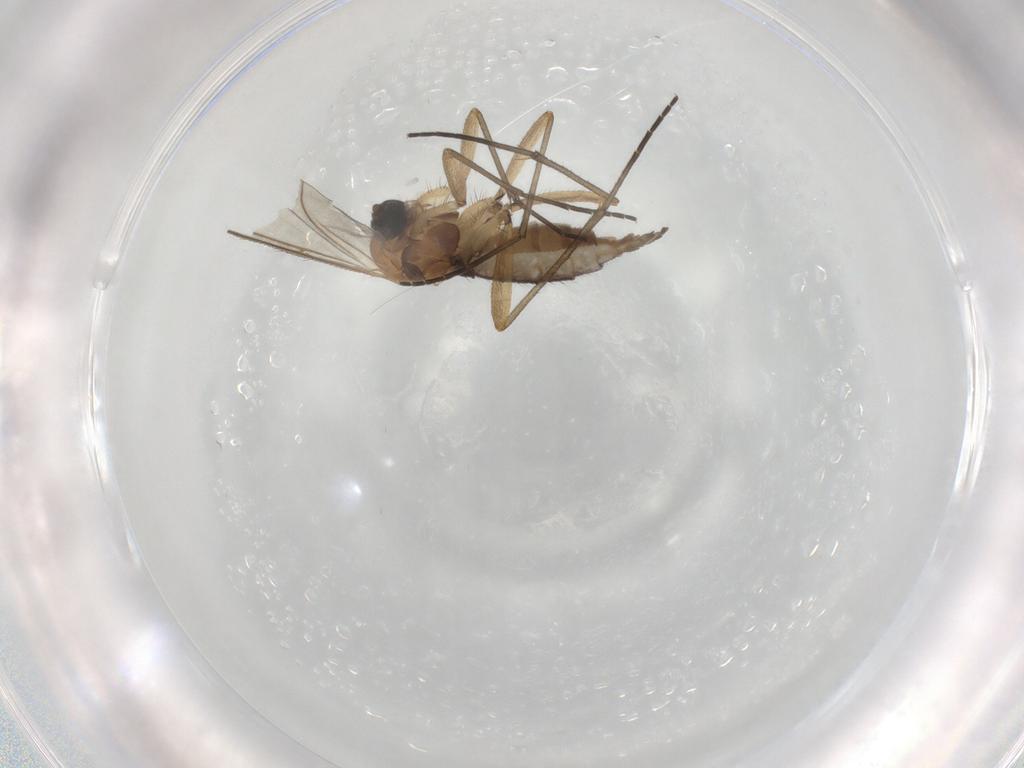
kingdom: Animalia
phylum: Arthropoda
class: Insecta
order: Diptera
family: Sciaridae
